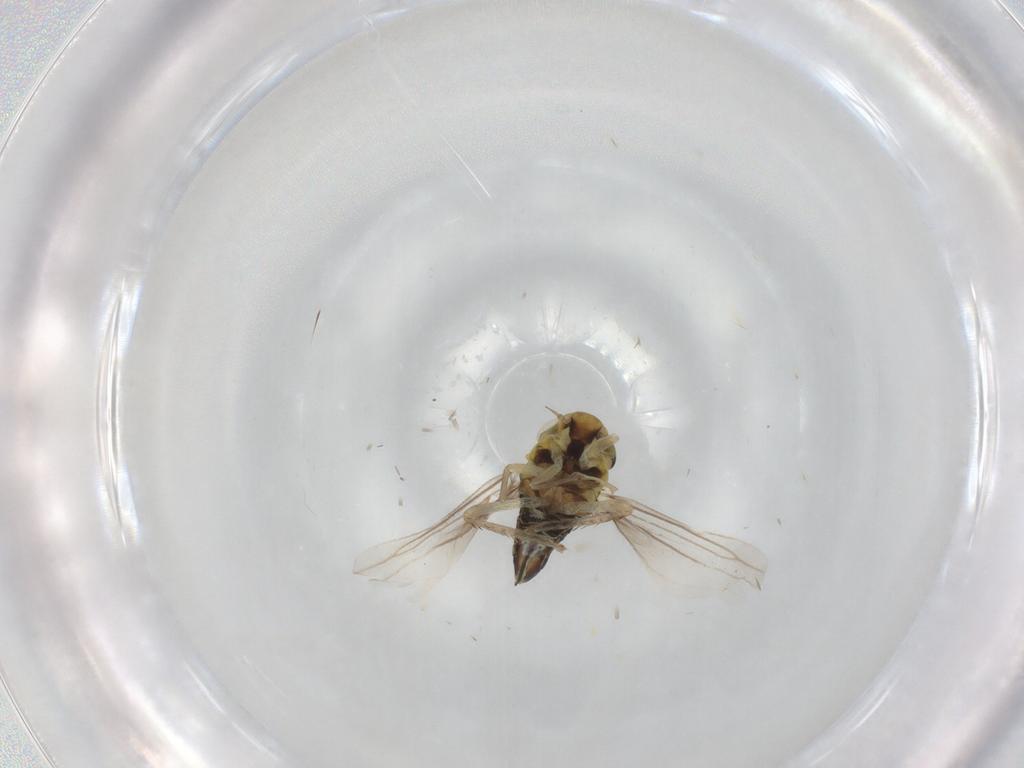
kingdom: Animalia
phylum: Arthropoda
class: Insecta
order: Hemiptera
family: Cicadellidae
